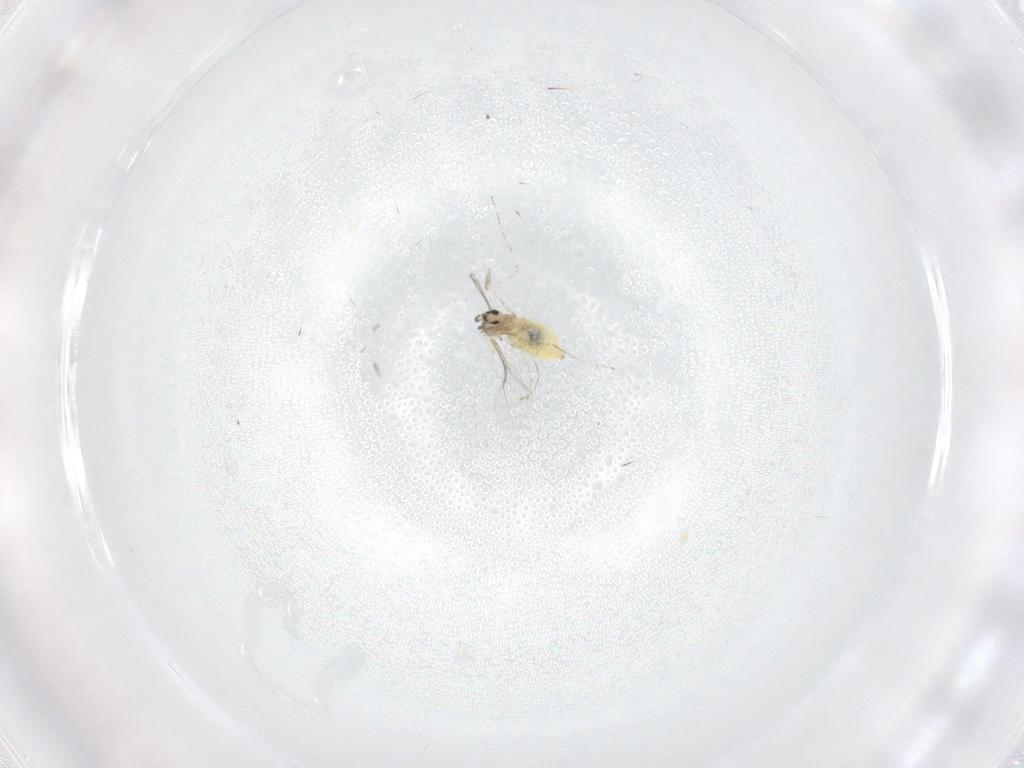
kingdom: Animalia
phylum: Arthropoda
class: Insecta
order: Diptera
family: Cecidomyiidae
